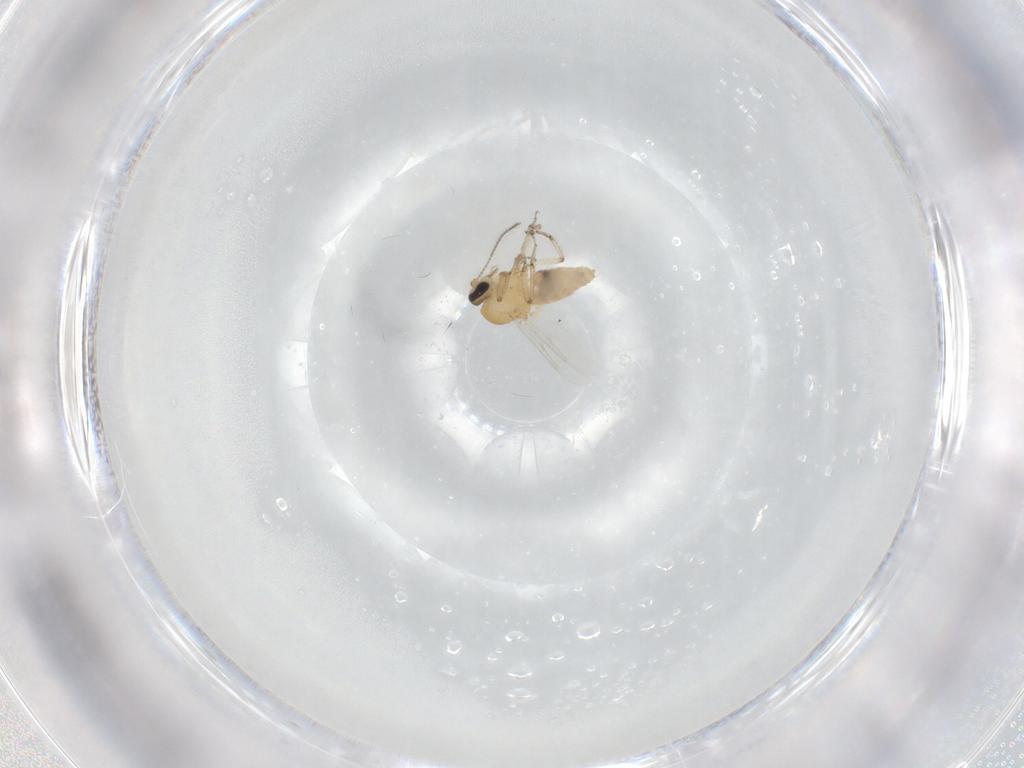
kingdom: Animalia
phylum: Arthropoda
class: Insecta
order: Diptera
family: Ceratopogonidae
